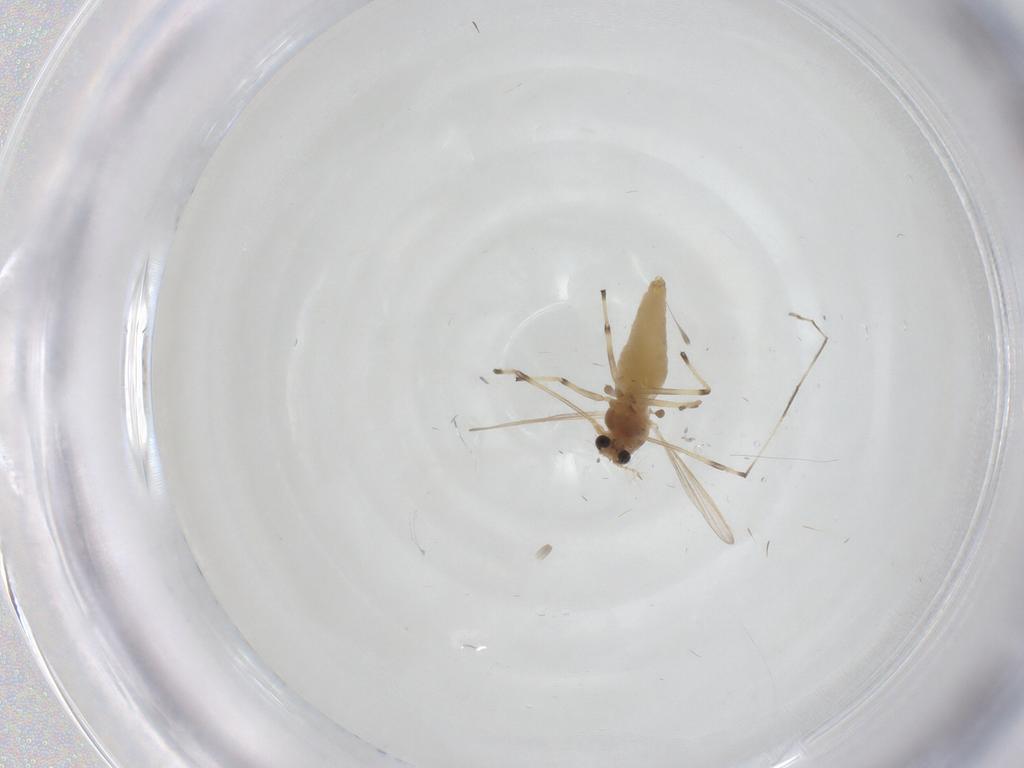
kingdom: Animalia
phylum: Arthropoda
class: Insecta
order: Diptera
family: Chironomidae
